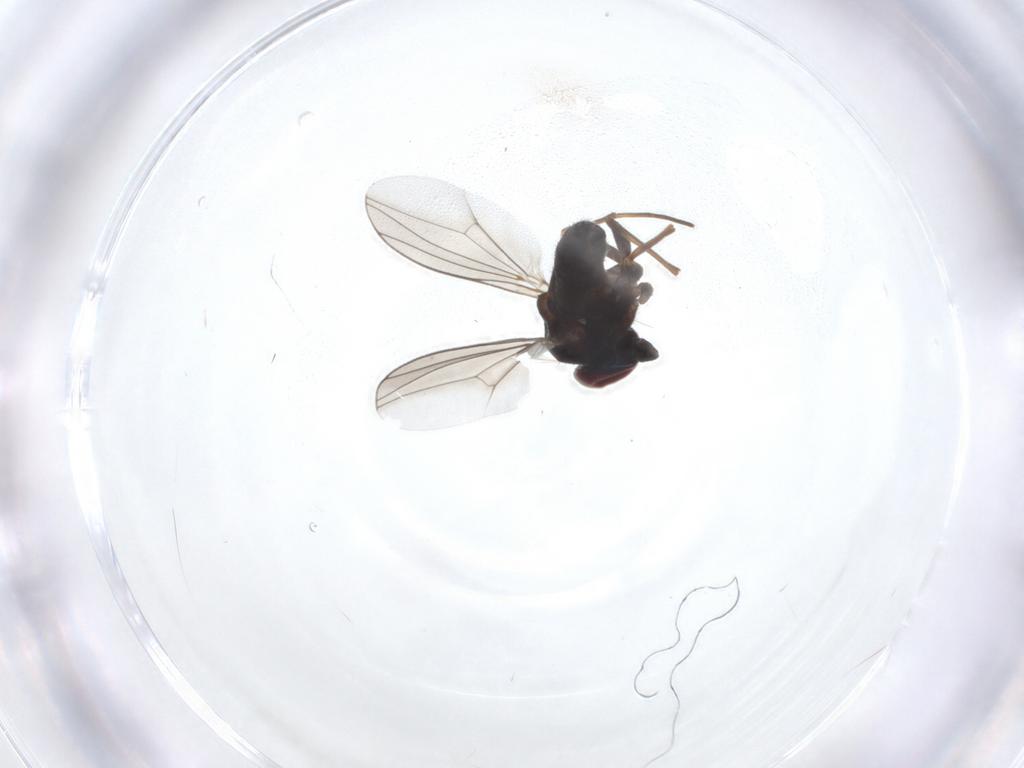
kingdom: Animalia
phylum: Arthropoda
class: Insecta
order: Diptera
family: Dolichopodidae
